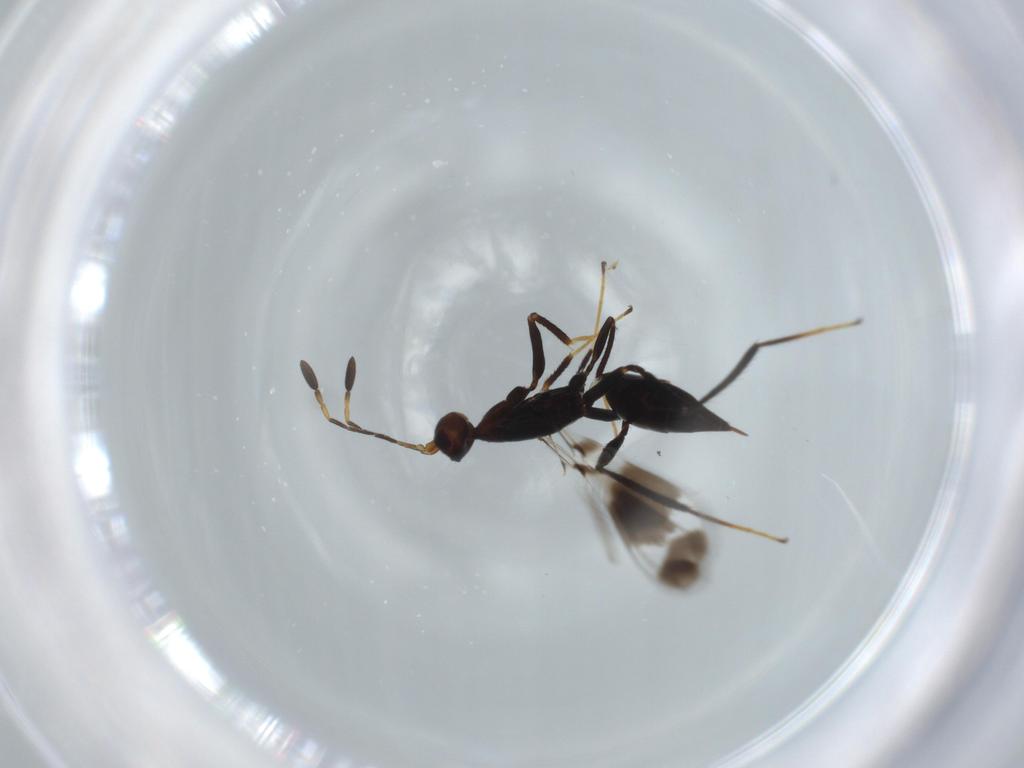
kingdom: Animalia
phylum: Arthropoda
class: Insecta
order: Hymenoptera
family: Mymaridae
